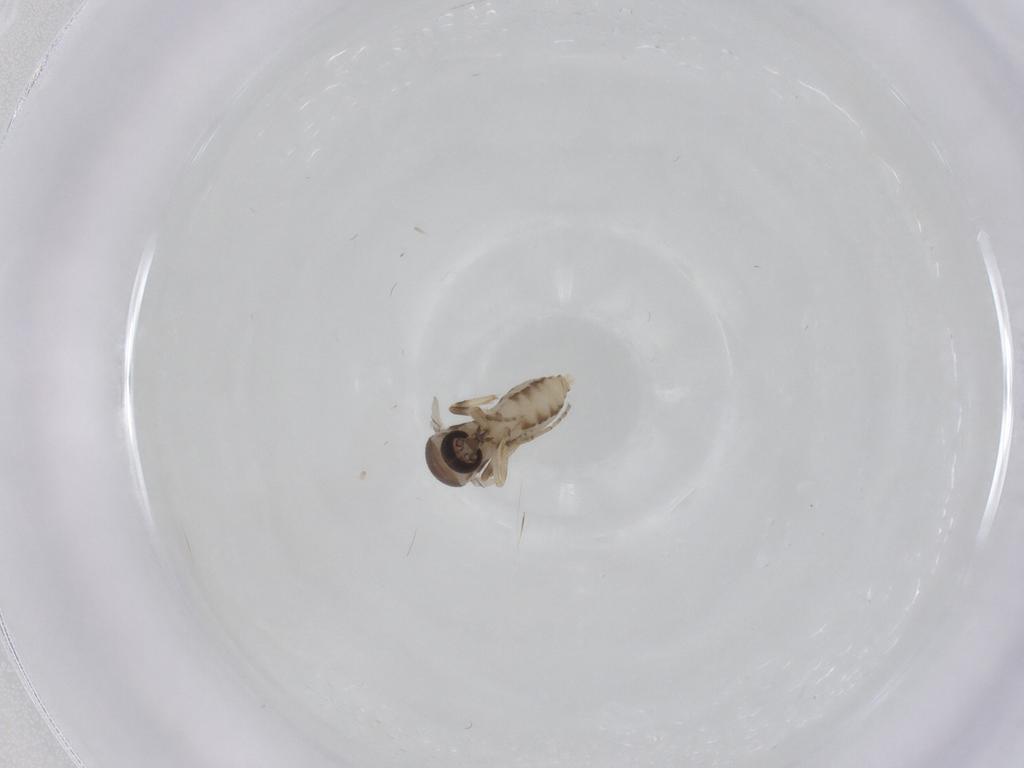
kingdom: Animalia
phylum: Arthropoda
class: Insecta
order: Diptera
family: Ceratopogonidae
